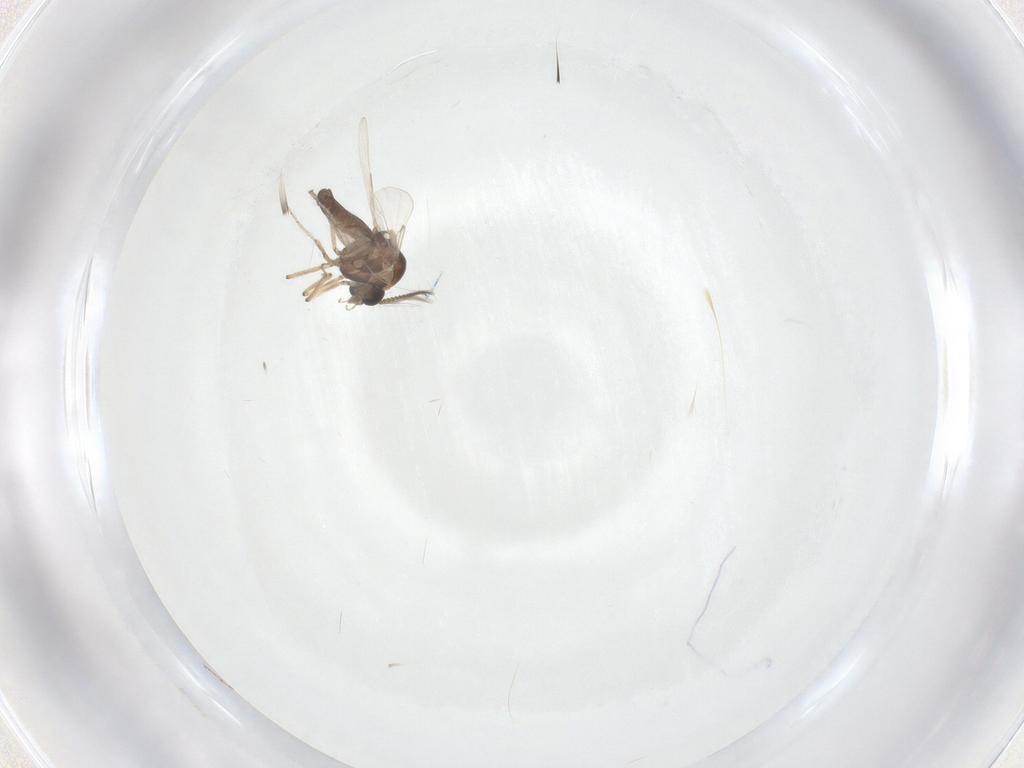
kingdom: Animalia
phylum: Arthropoda
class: Insecta
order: Diptera
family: Ceratopogonidae
